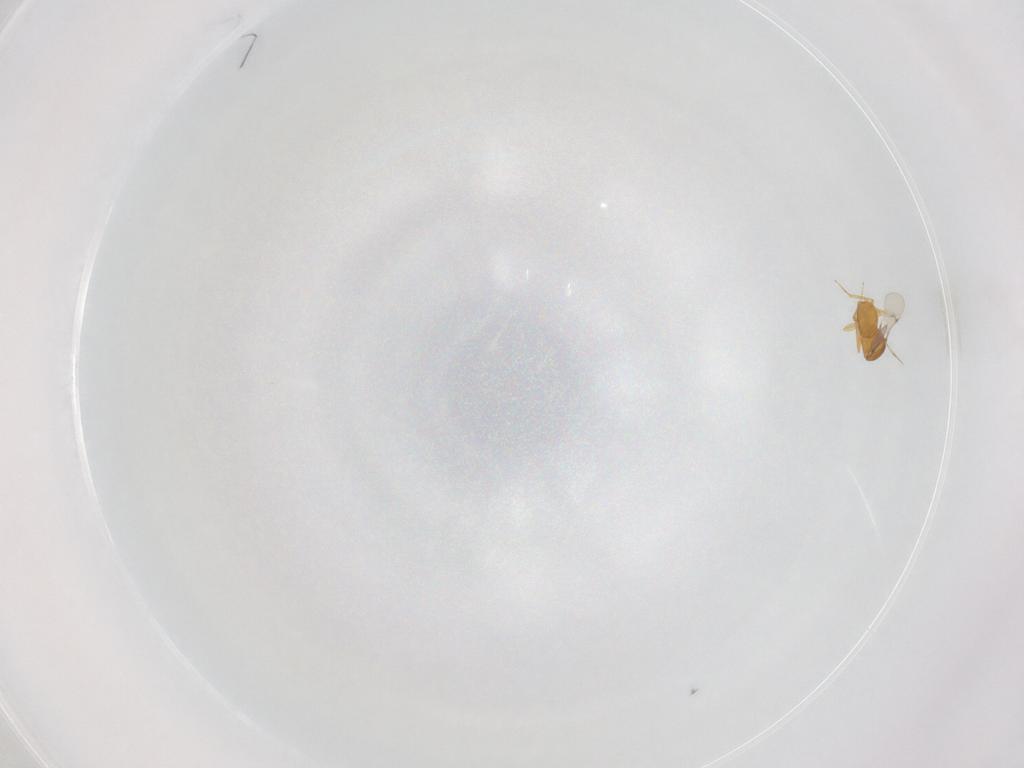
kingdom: Animalia
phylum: Arthropoda
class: Insecta
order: Hymenoptera
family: Scelionidae
